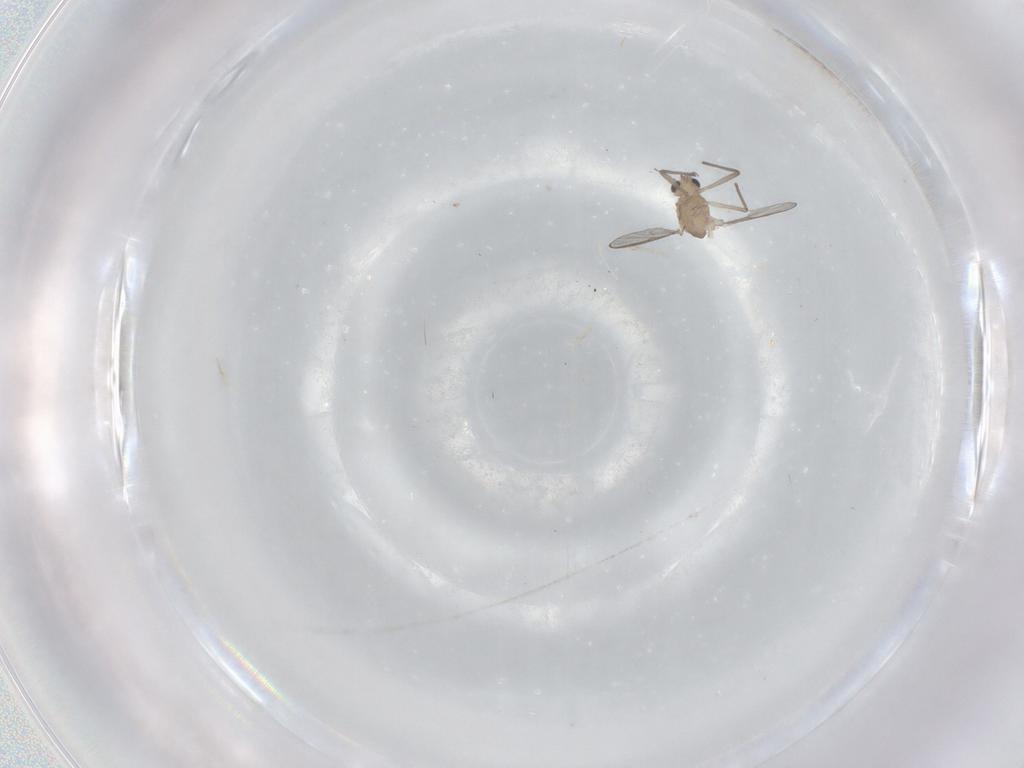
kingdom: Animalia
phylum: Arthropoda
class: Insecta
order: Diptera
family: Chironomidae
